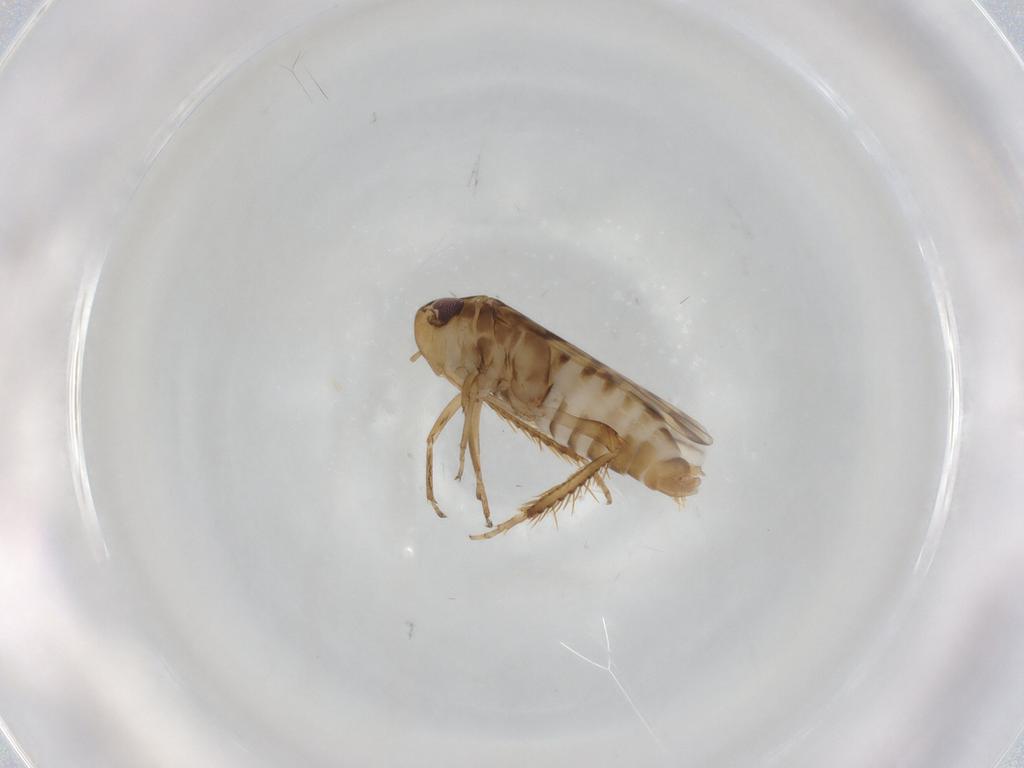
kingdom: Animalia
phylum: Arthropoda
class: Insecta
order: Hemiptera
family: Cicadellidae
